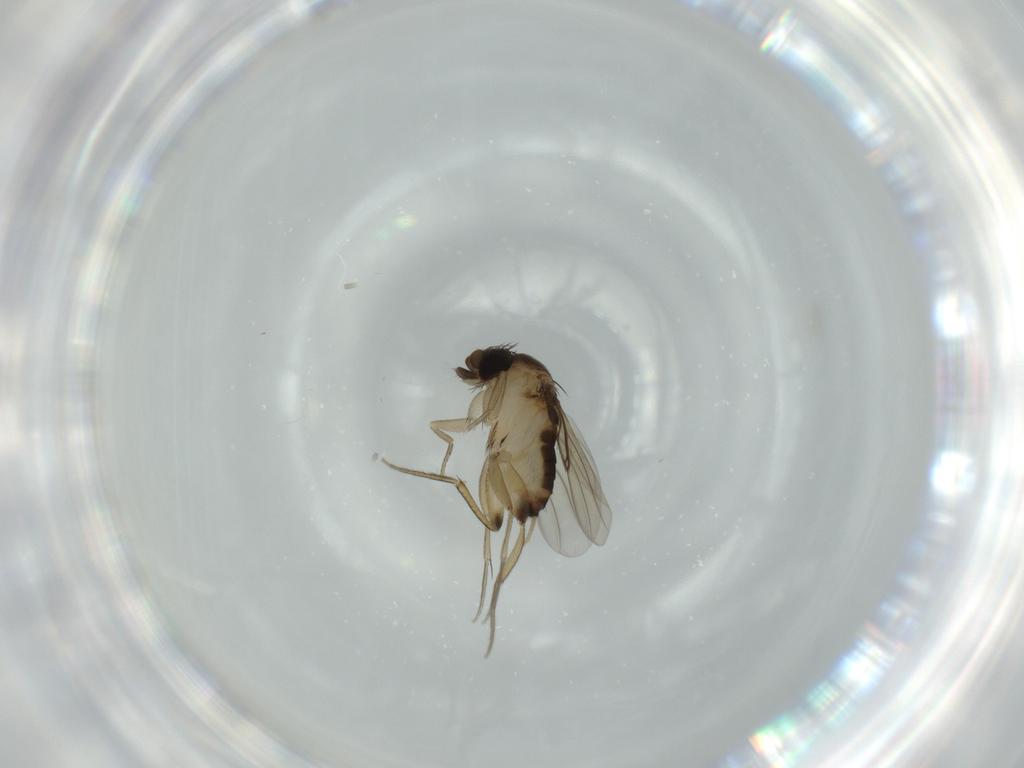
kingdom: Animalia
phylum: Arthropoda
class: Insecta
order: Diptera
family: Phoridae
